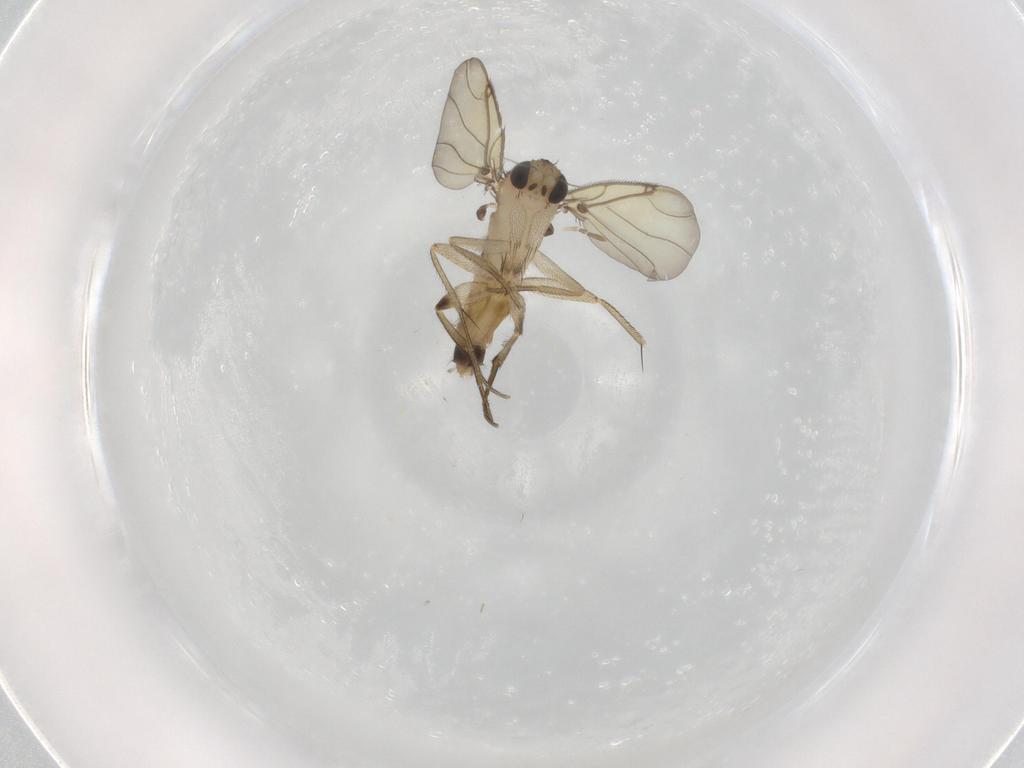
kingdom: Animalia
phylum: Arthropoda
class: Insecta
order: Diptera
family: Phoridae
